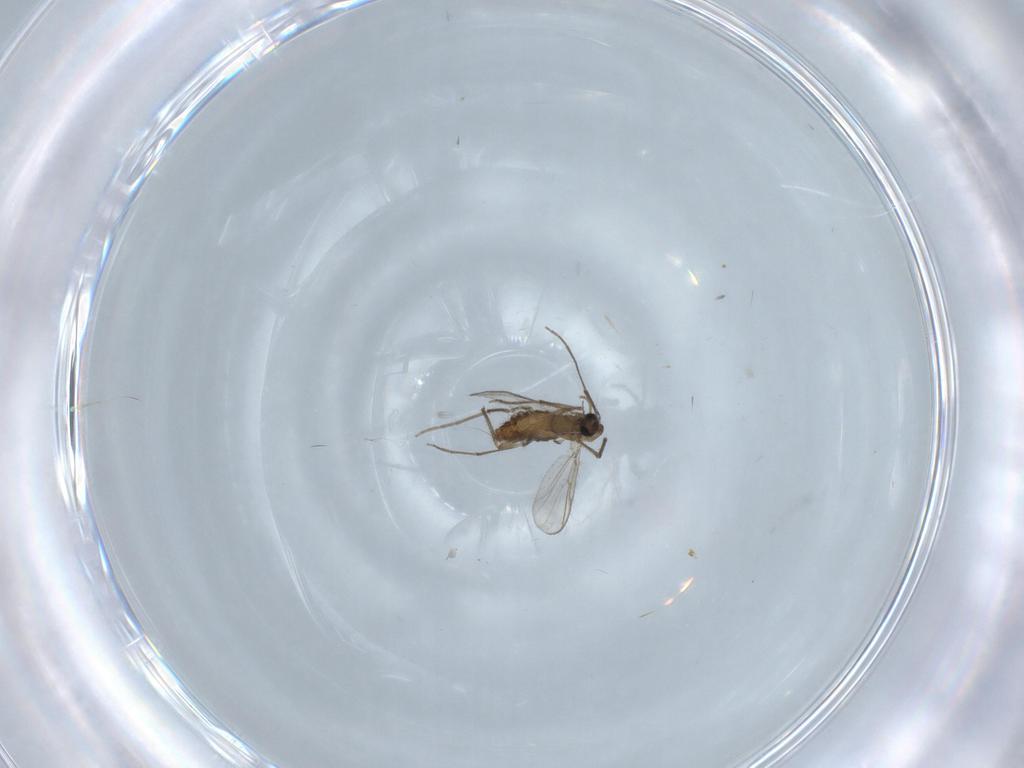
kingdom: Animalia
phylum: Arthropoda
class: Insecta
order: Diptera
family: Chironomidae
